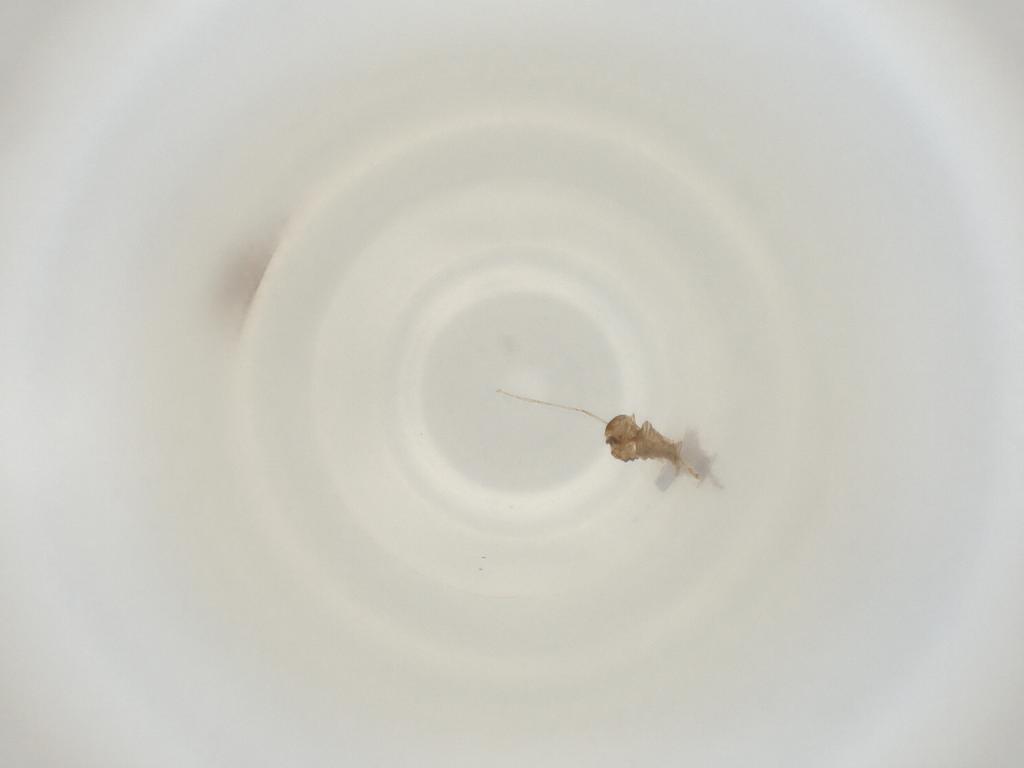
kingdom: Animalia
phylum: Arthropoda
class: Insecta
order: Diptera
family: Cecidomyiidae
